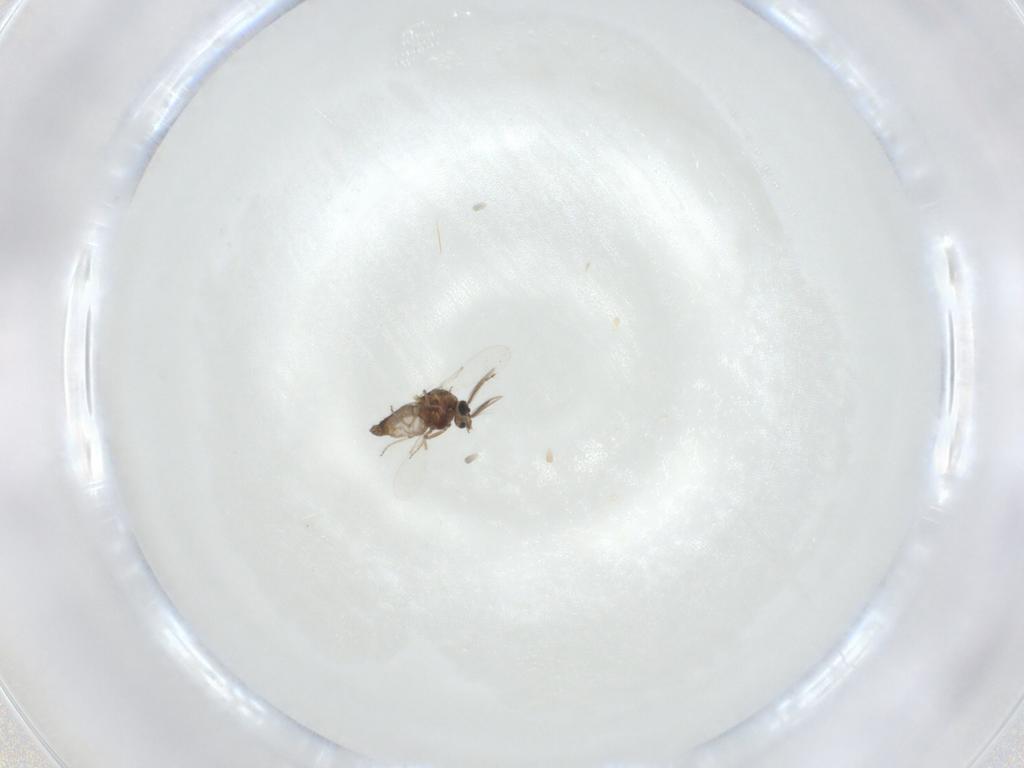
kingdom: Animalia
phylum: Arthropoda
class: Insecta
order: Diptera
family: Ceratopogonidae
